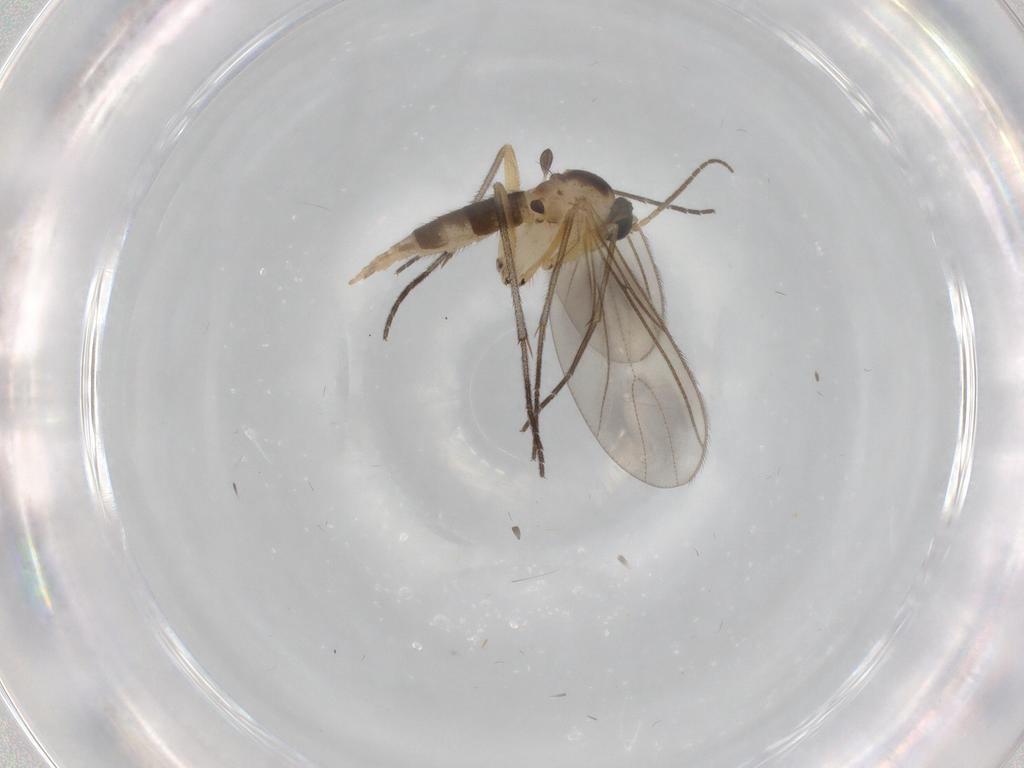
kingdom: Animalia
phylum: Arthropoda
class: Insecta
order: Diptera
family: Sciaridae
